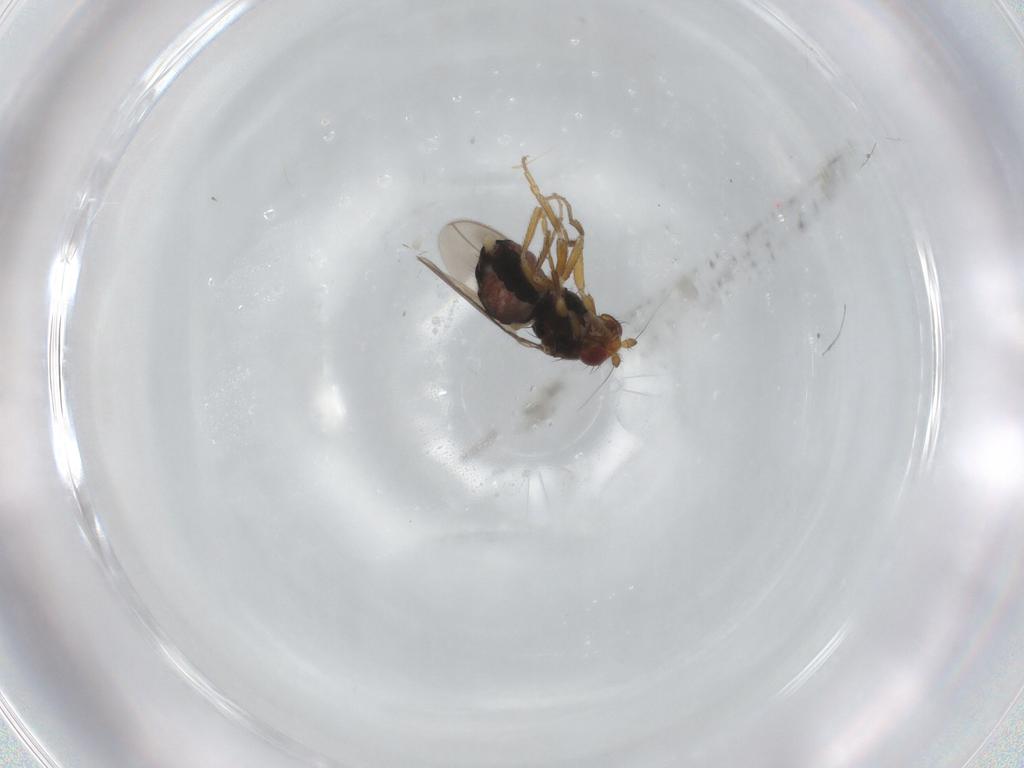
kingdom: Animalia
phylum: Arthropoda
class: Insecta
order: Diptera
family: Sphaeroceridae
